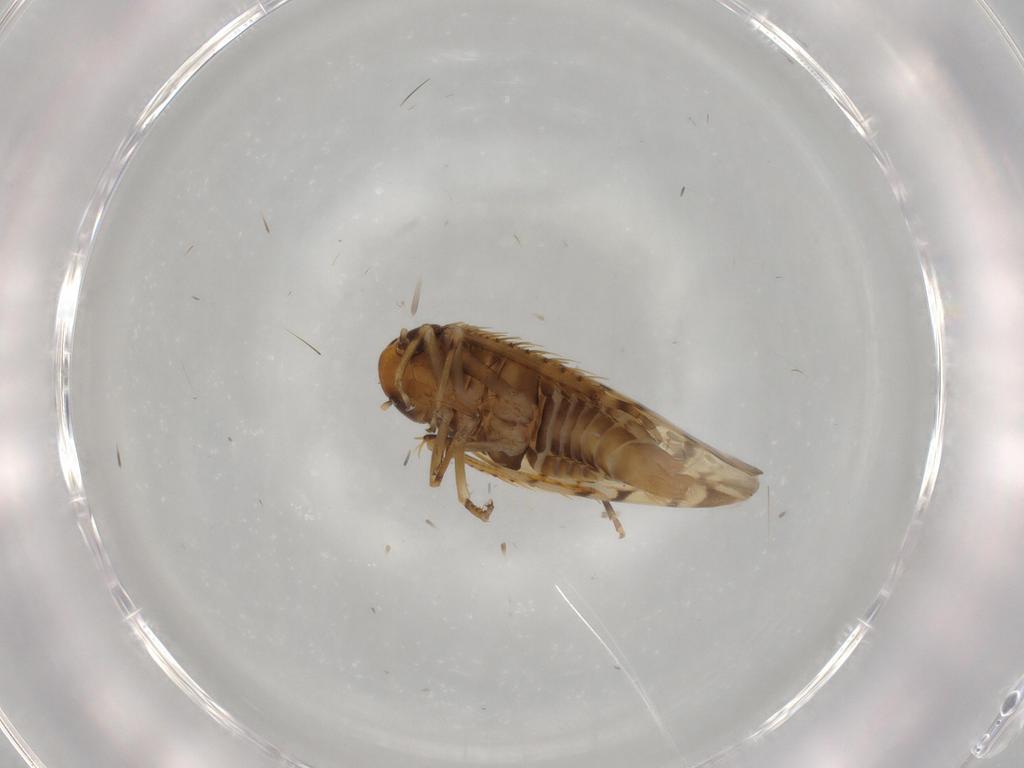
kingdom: Animalia
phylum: Arthropoda
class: Insecta
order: Hemiptera
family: Cicadellidae
